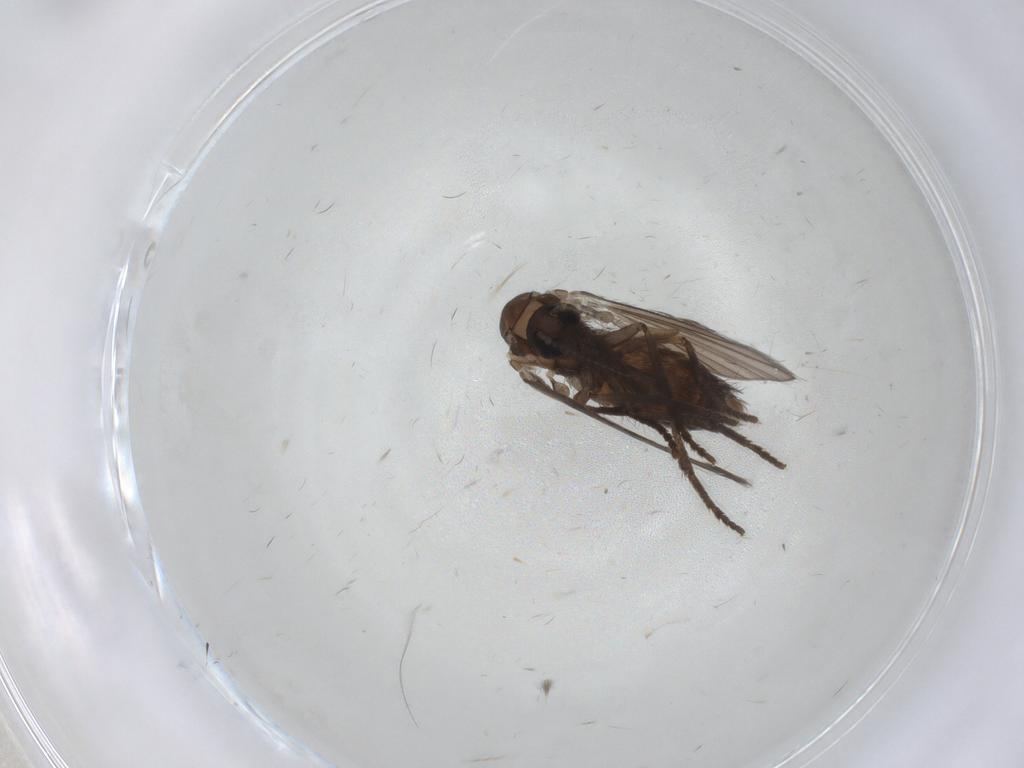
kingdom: Animalia
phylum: Arthropoda
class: Insecta
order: Diptera
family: Psychodidae
